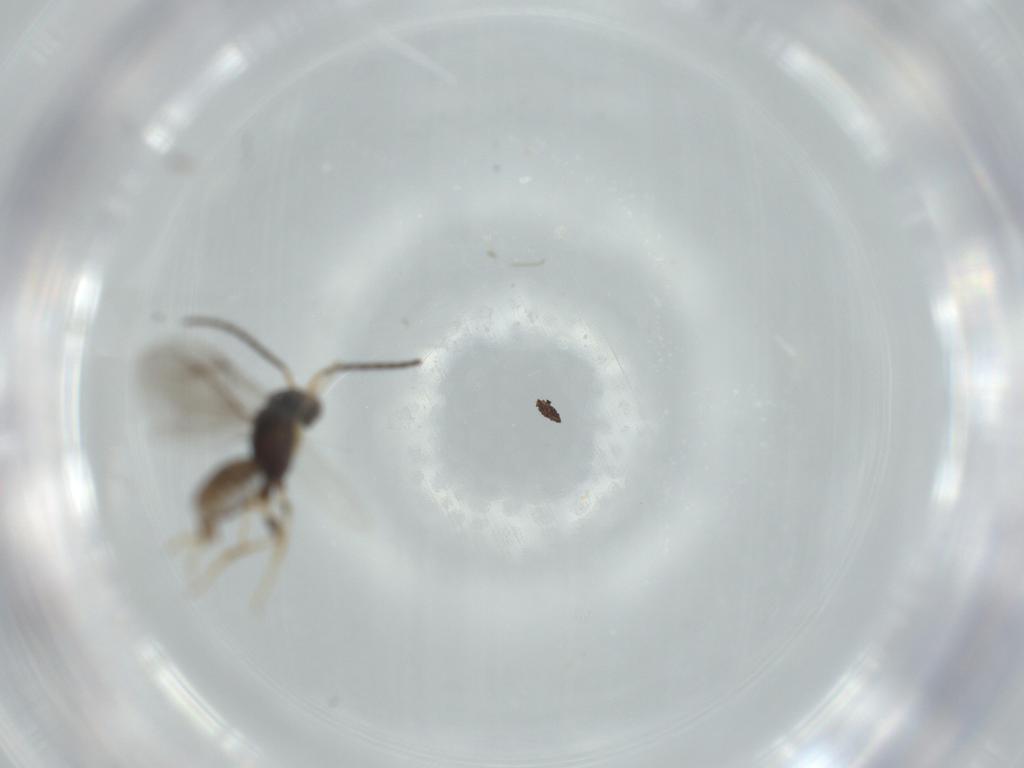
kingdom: Animalia
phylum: Arthropoda
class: Insecta
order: Hymenoptera
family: Dryinidae
